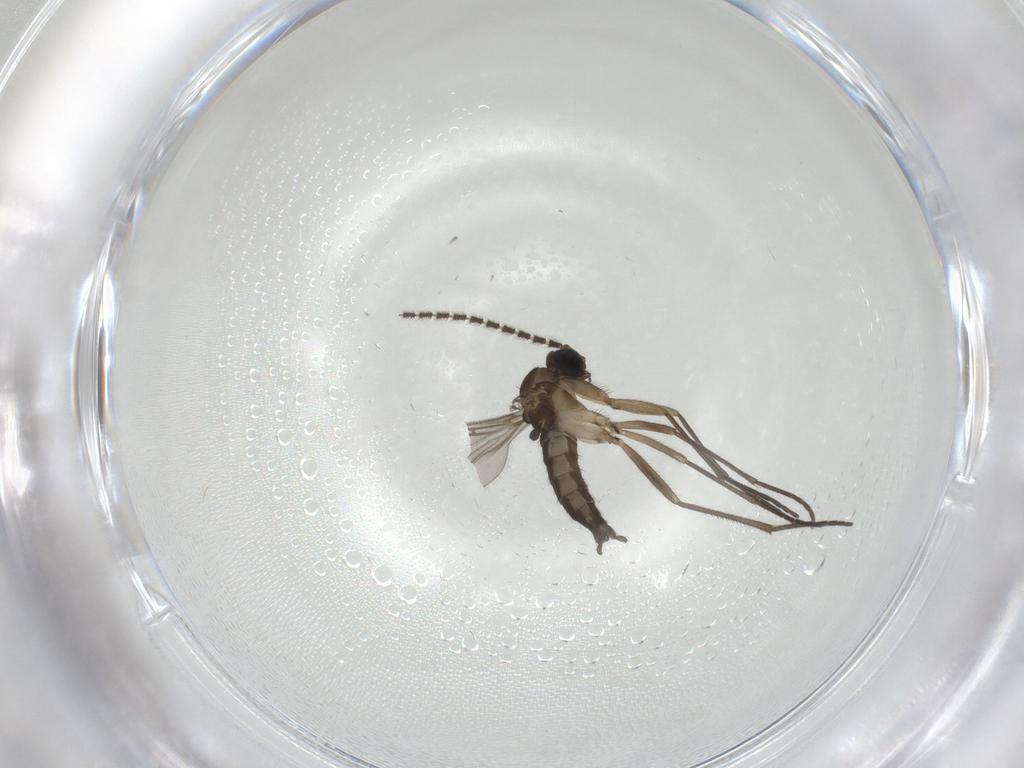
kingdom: Animalia
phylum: Arthropoda
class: Insecta
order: Diptera
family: Sciaridae
